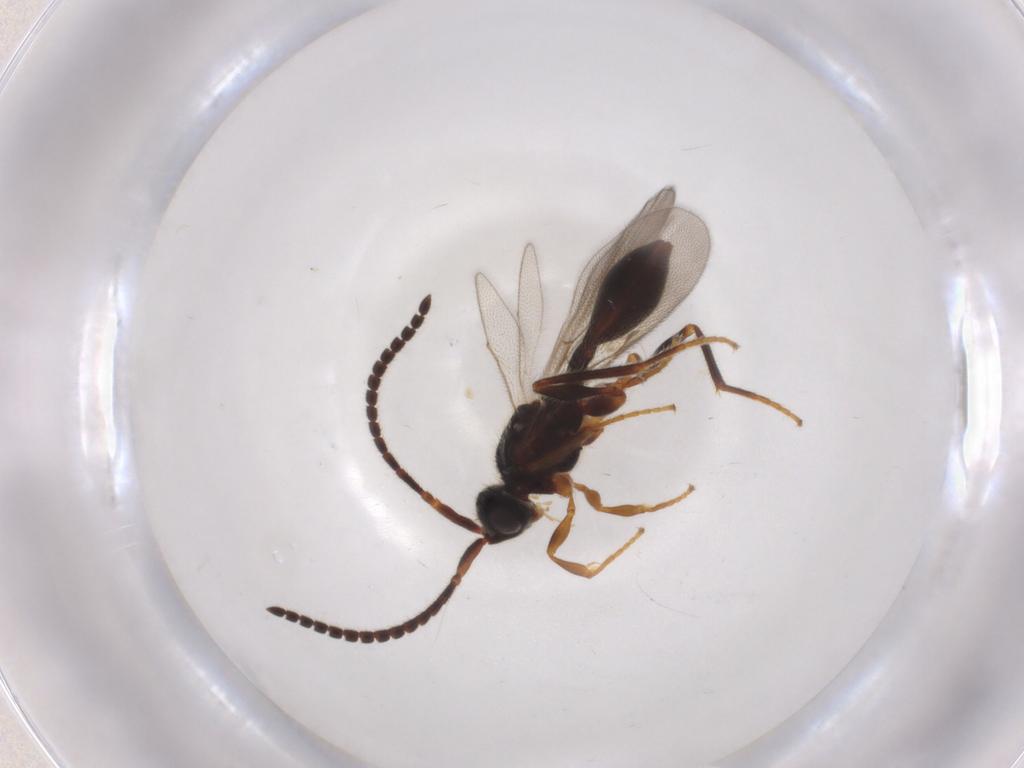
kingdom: Animalia
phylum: Arthropoda
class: Insecta
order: Hymenoptera
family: Diapriidae
